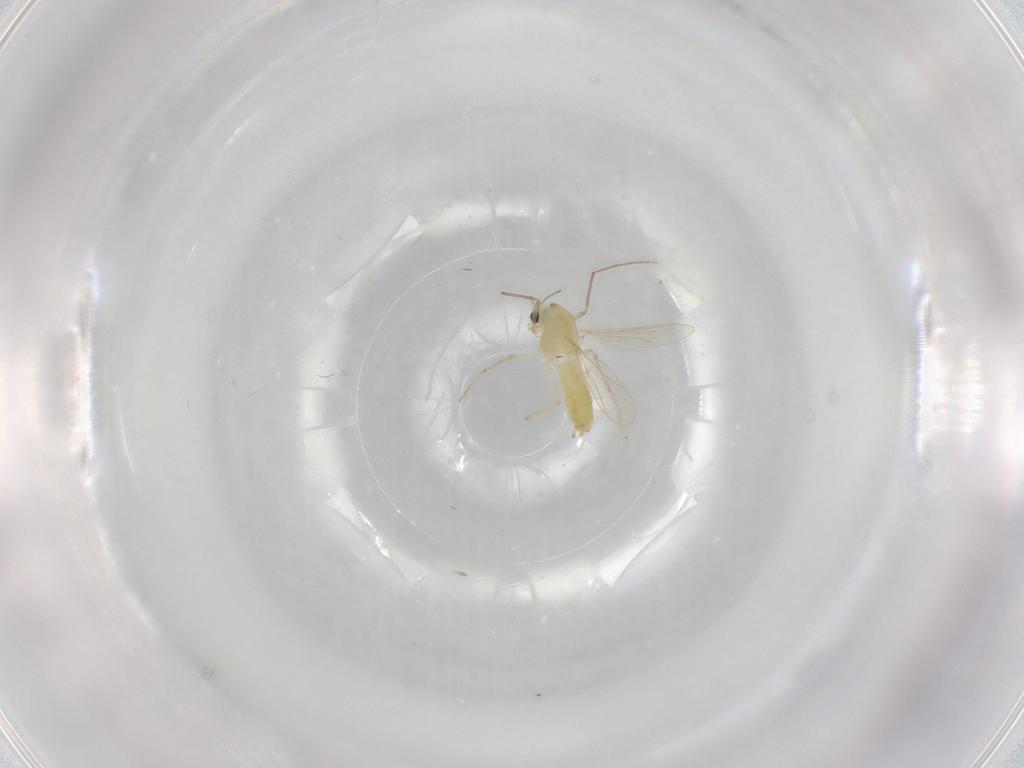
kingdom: Animalia
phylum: Arthropoda
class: Insecta
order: Diptera
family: Chironomidae
